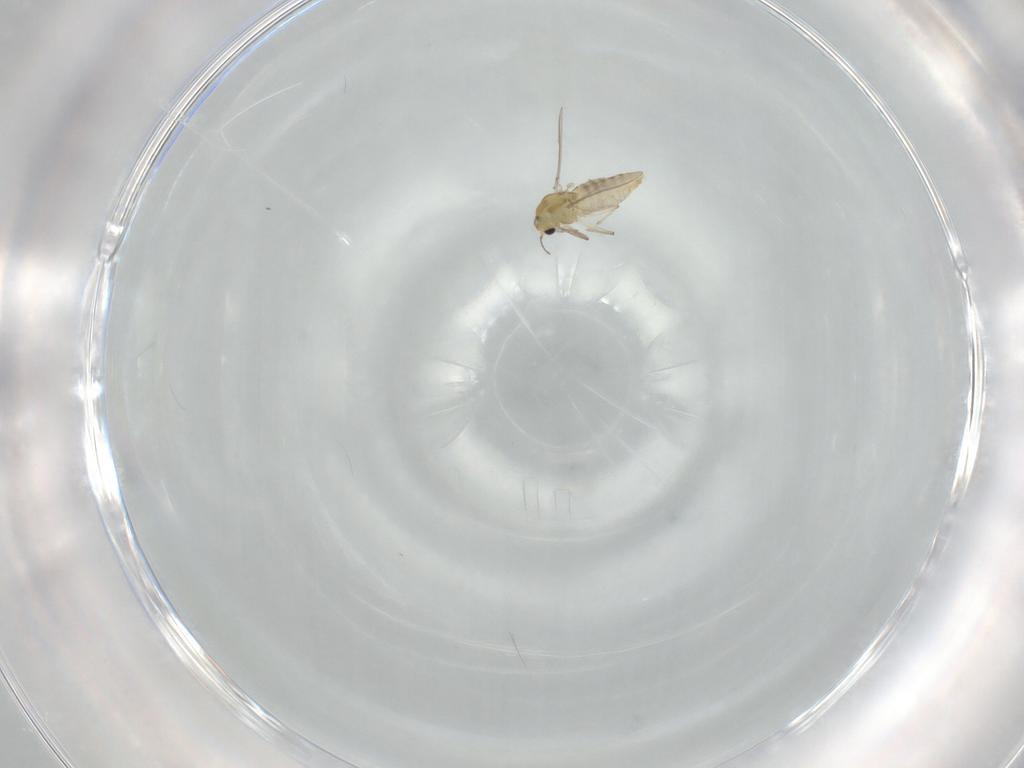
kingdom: Animalia
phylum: Arthropoda
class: Insecta
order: Diptera
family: Chironomidae
